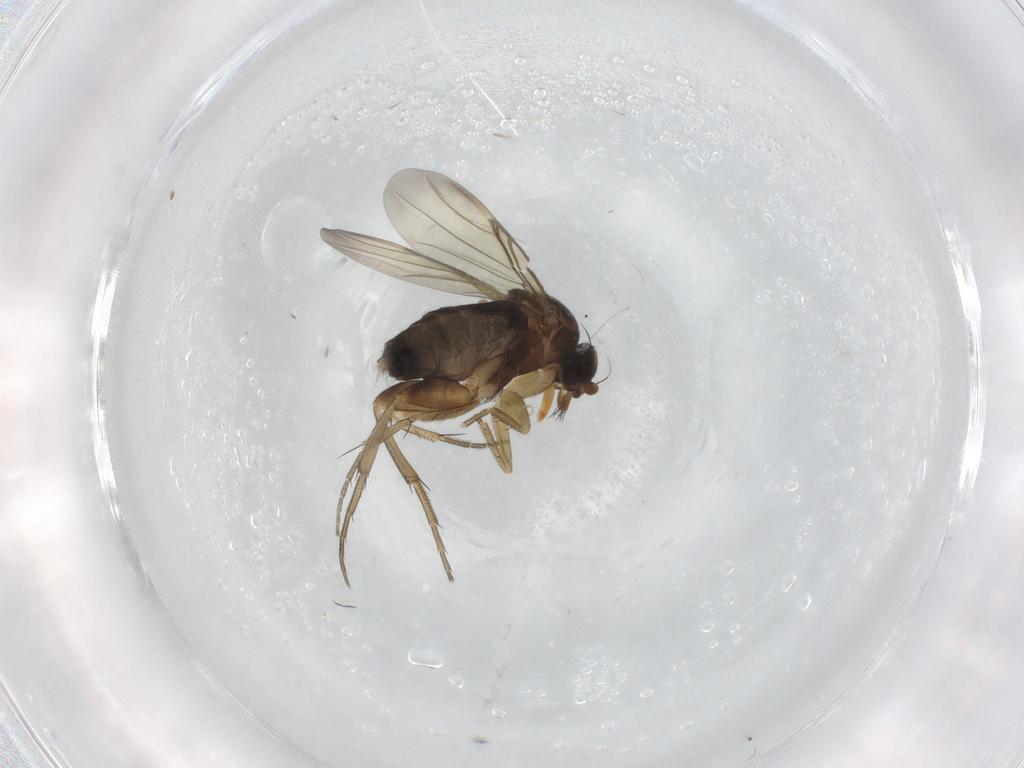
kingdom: Animalia
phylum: Arthropoda
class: Insecta
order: Diptera
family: Phoridae
